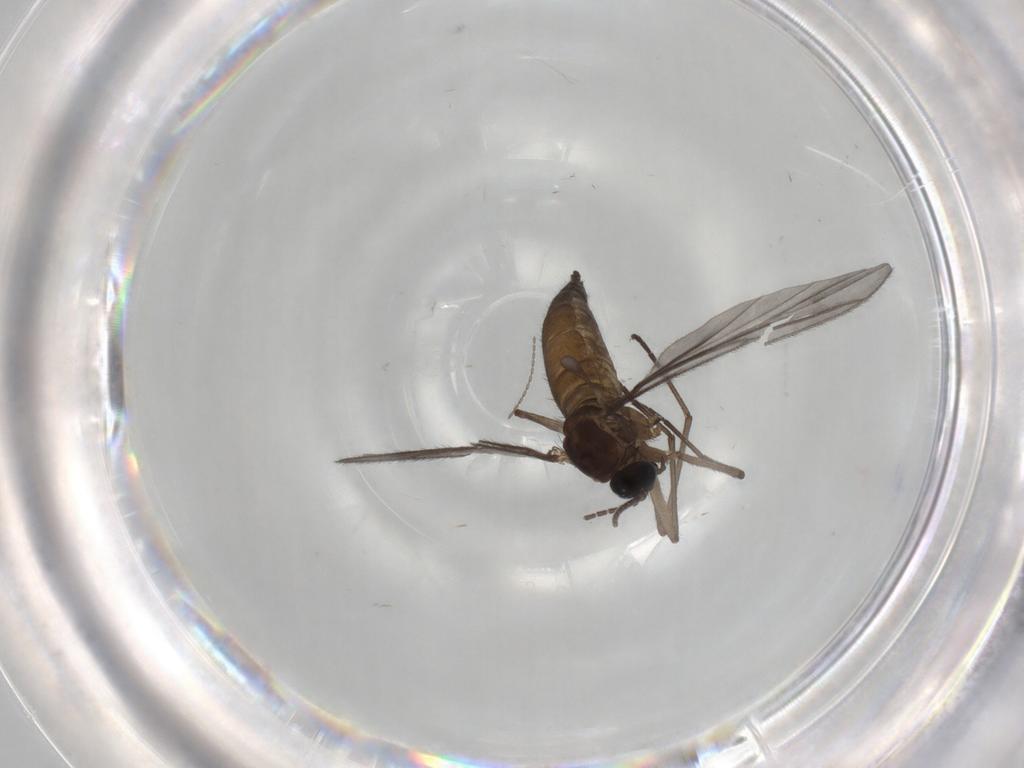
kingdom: Animalia
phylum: Arthropoda
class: Insecta
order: Diptera
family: Sciaridae
